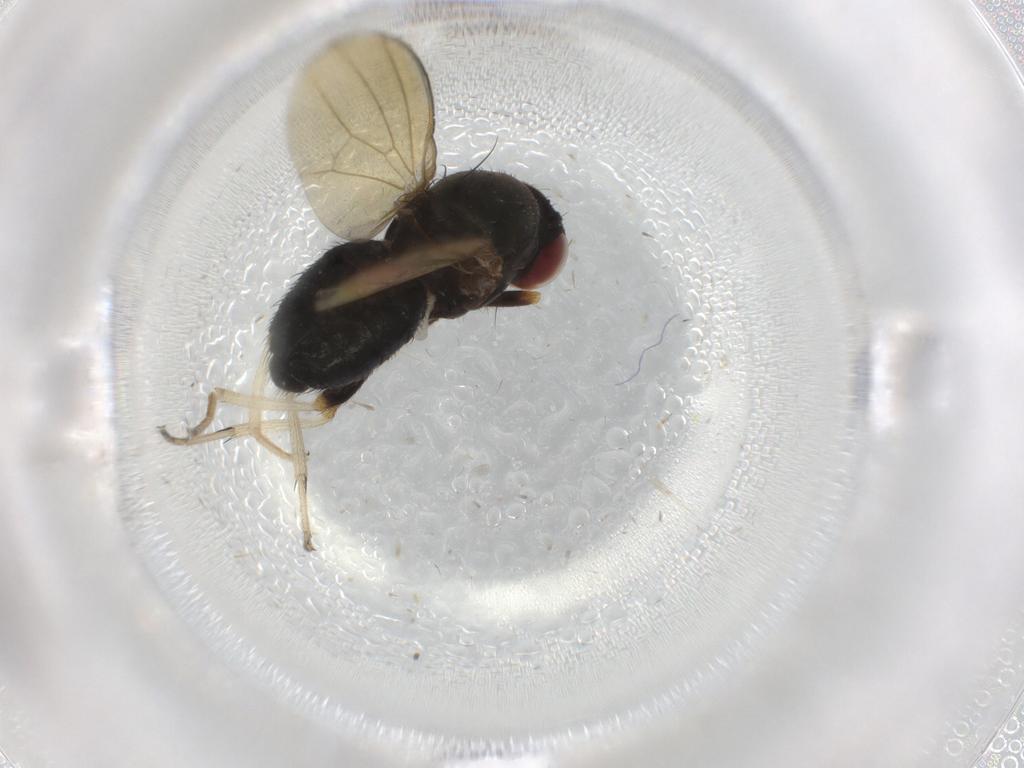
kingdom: Animalia
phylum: Arthropoda
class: Insecta
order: Diptera
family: Sciaridae
